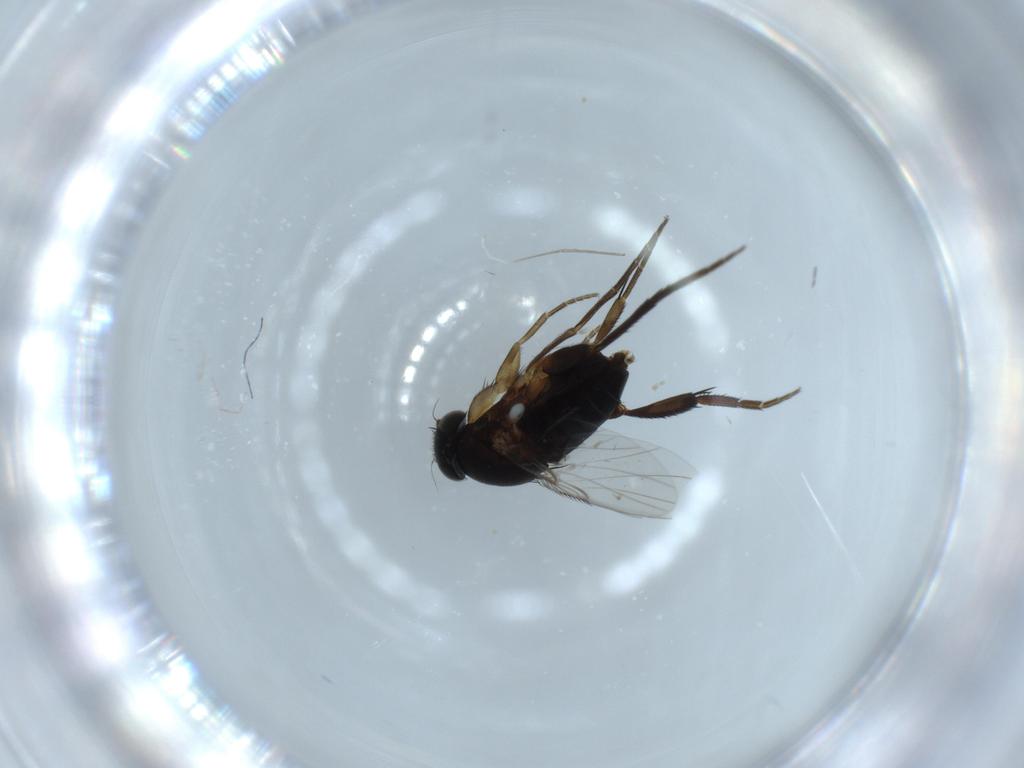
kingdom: Animalia
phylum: Arthropoda
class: Insecta
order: Diptera
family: Phoridae
